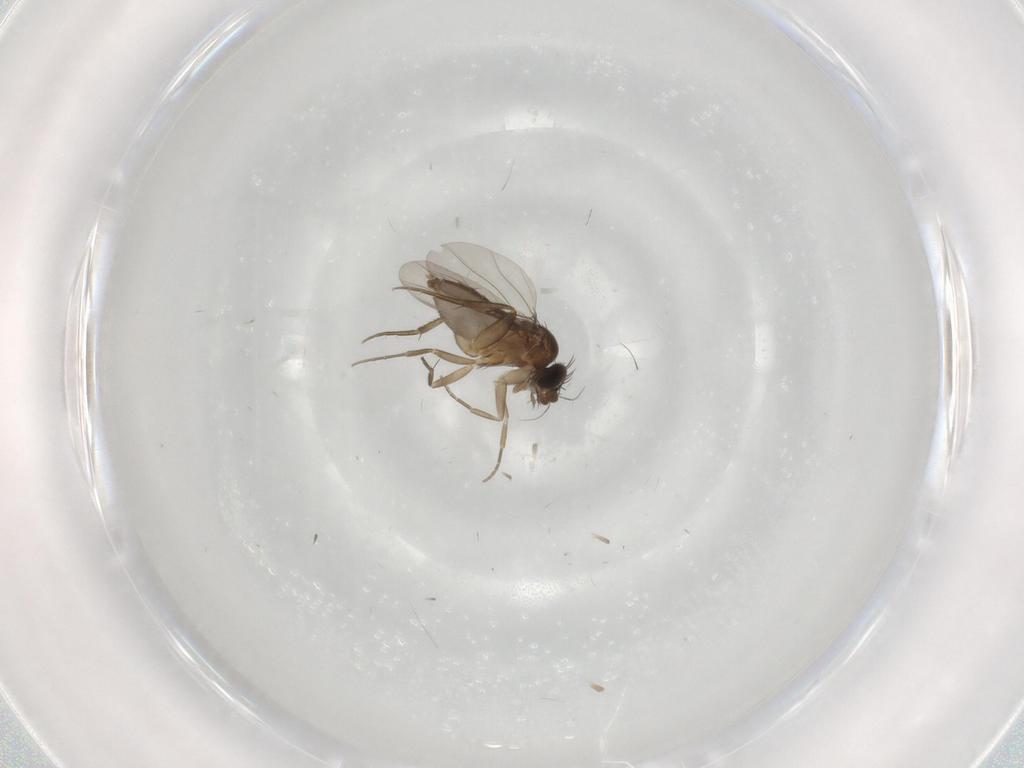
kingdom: Animalia
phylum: Arthropoda
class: Insecta
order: Diptera
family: Phoridae
